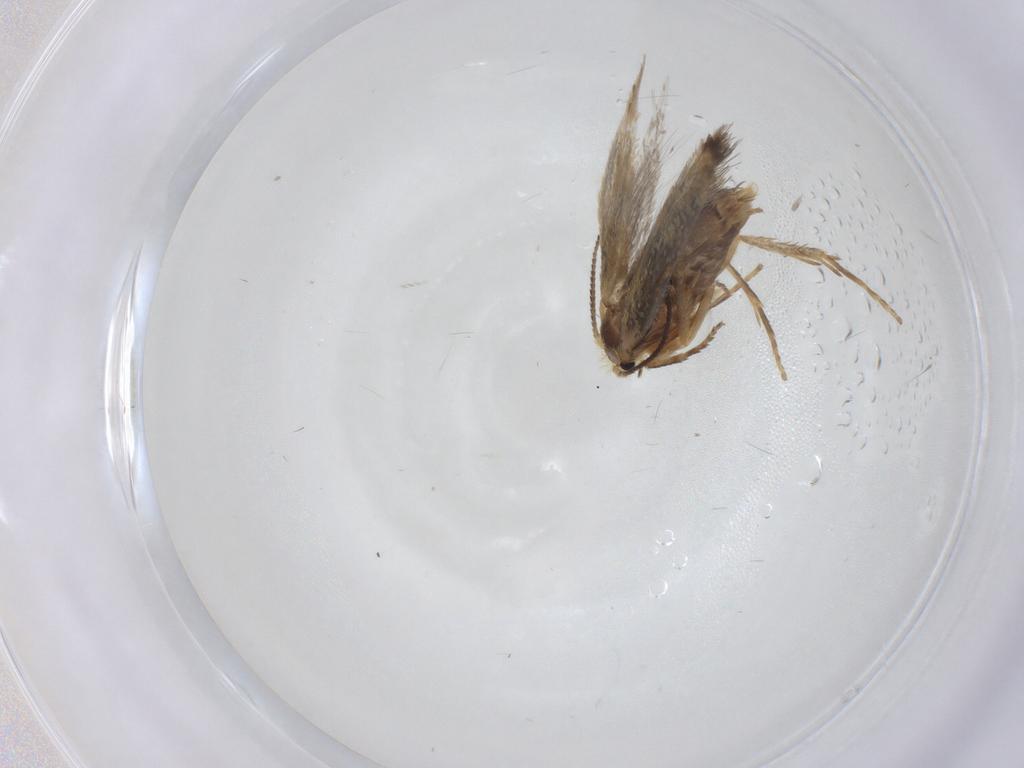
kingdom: Animalia
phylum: Arthropoda
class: Insecta
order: Lepidoptera
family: Nepticulidae
